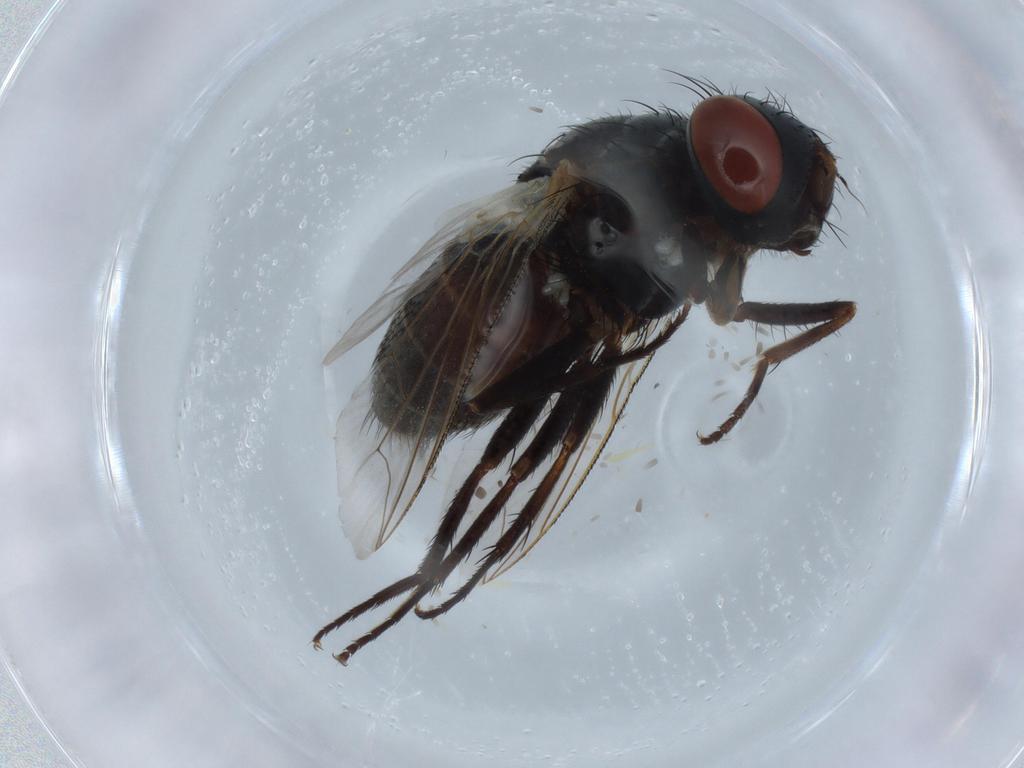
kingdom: Animalia
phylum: Arthropoda
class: Insecta
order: Diptera
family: Sarcophagidae
